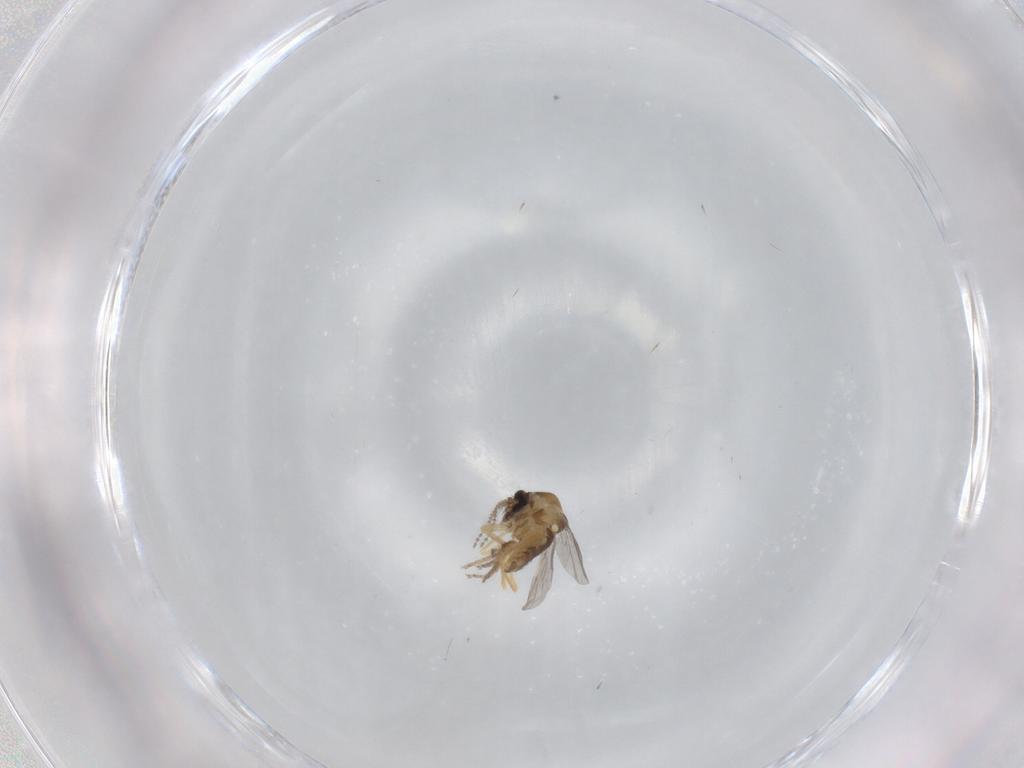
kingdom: Animalia
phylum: Arthropoda
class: Insecta
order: Diptera
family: Ceratopogonidae
